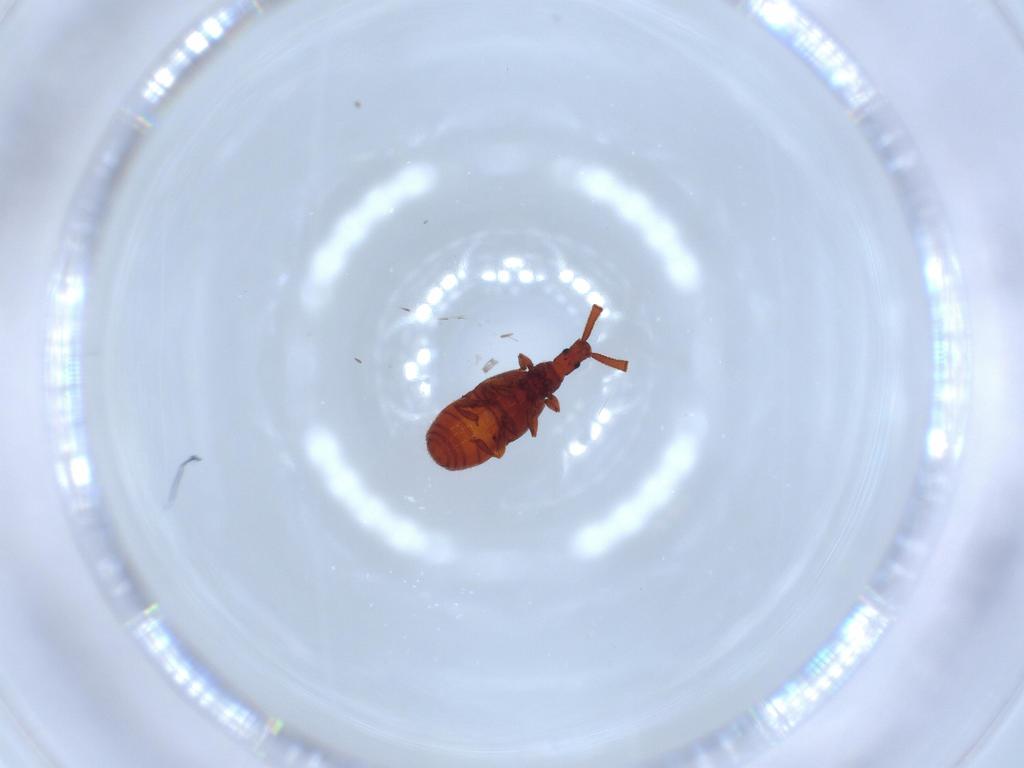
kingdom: Animalia
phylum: Arthropoda
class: Insecta
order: Coleoptera
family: Staphylinidae
